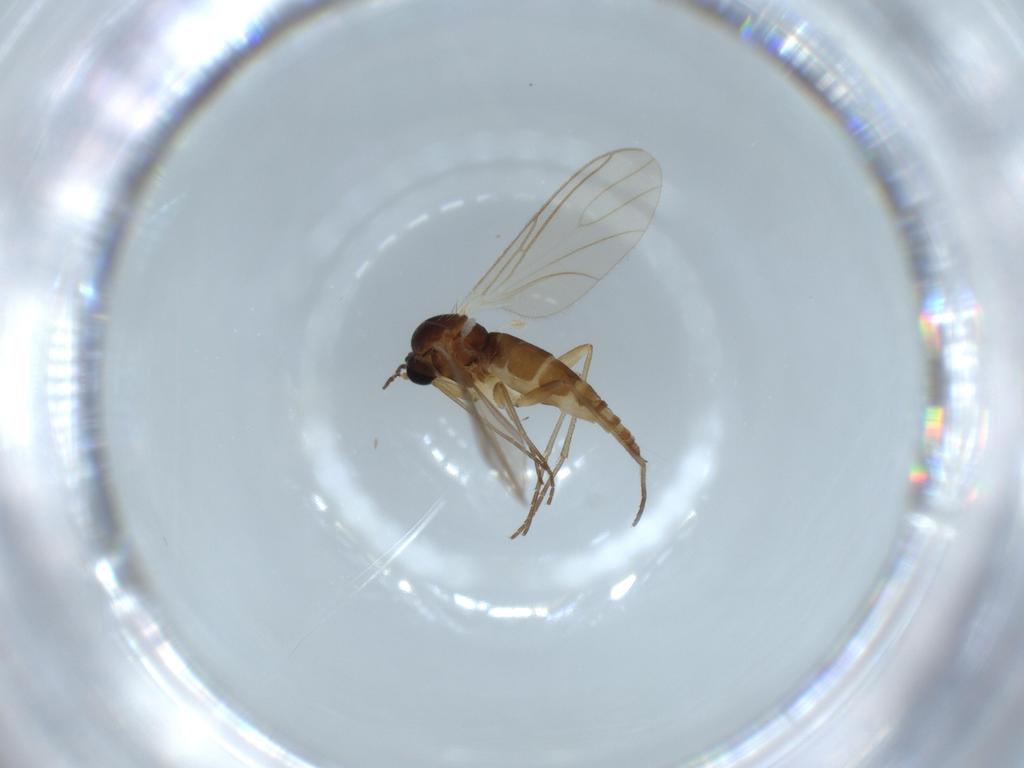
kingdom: Animalia
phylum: Arthropoda
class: Insecta
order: Diptera
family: Sciaridae
